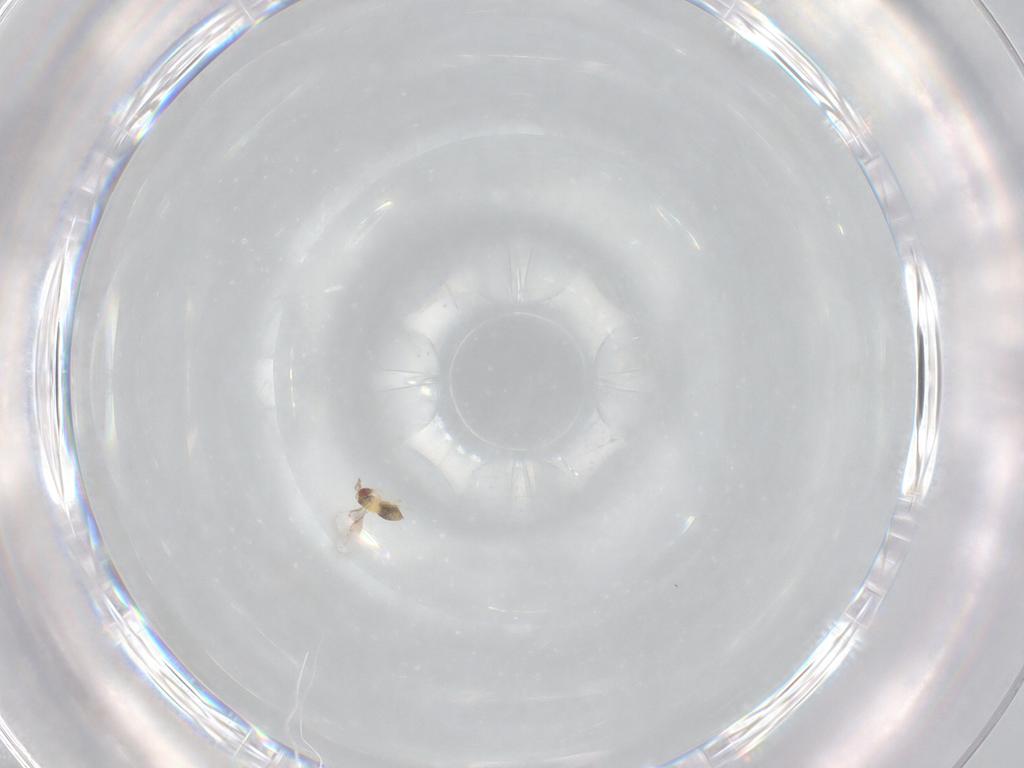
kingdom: Animalia
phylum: Arthropoda
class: Insecta
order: Hymenoptera
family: Trichogrammatidae
